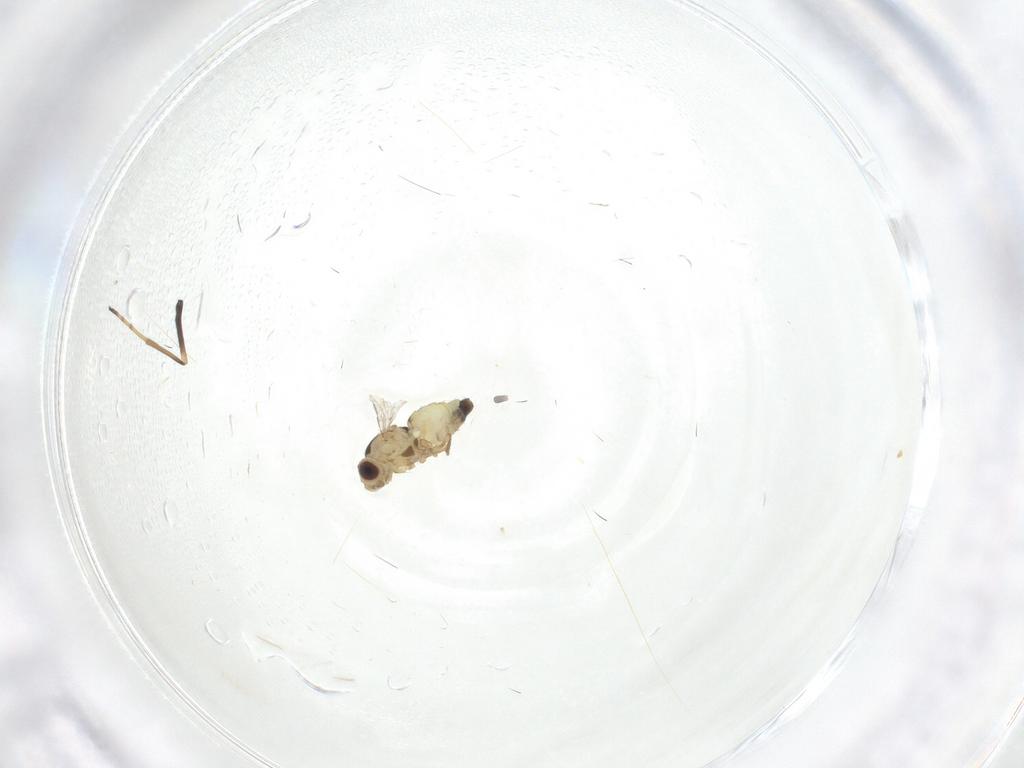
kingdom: Animalia
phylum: Arthropoda
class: Insecta
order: Diptera
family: Agromyzidae
